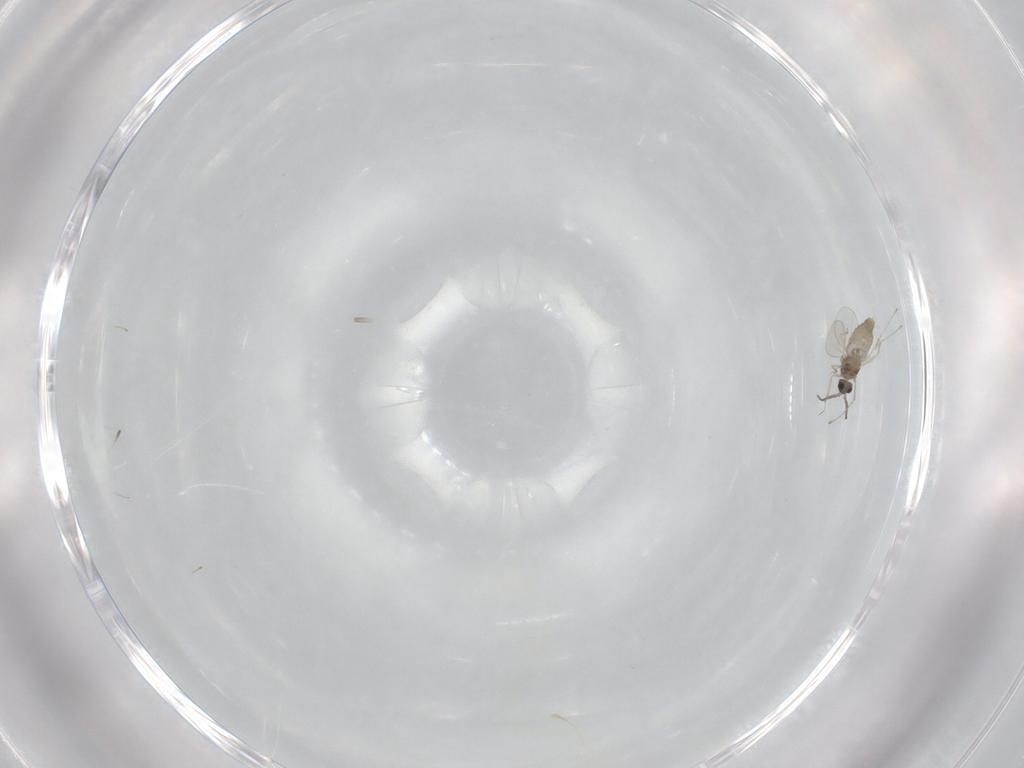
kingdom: Animalia
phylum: Arthropoda
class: Insecta
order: Diptera
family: Cecidomyiidae
